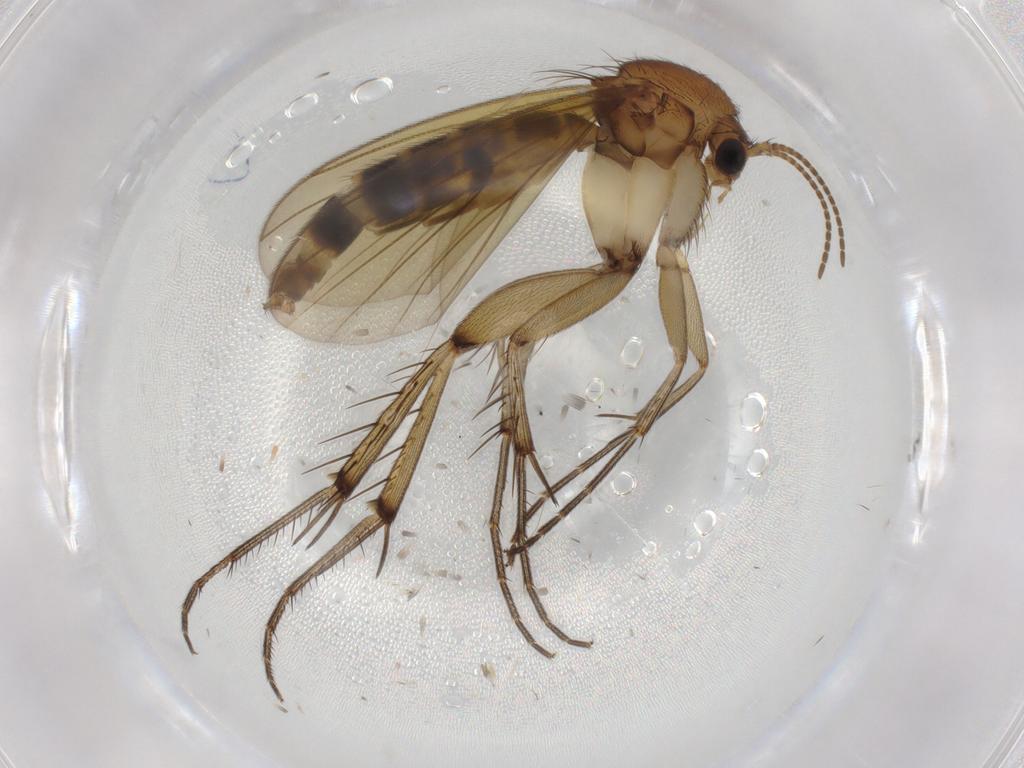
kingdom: Animalia
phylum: Arthropoda
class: Insecta
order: Diptera
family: Mycetophilidae
